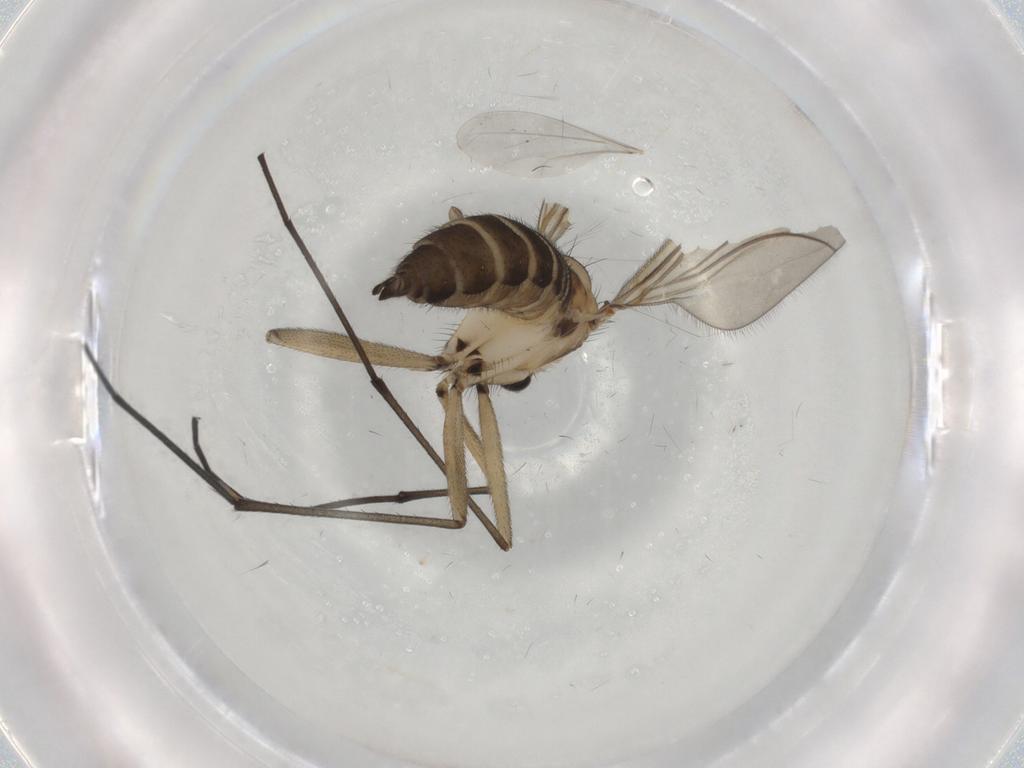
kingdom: Animalia
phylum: Arthropoda
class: Insecta
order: Diptera
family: Sciaridae
